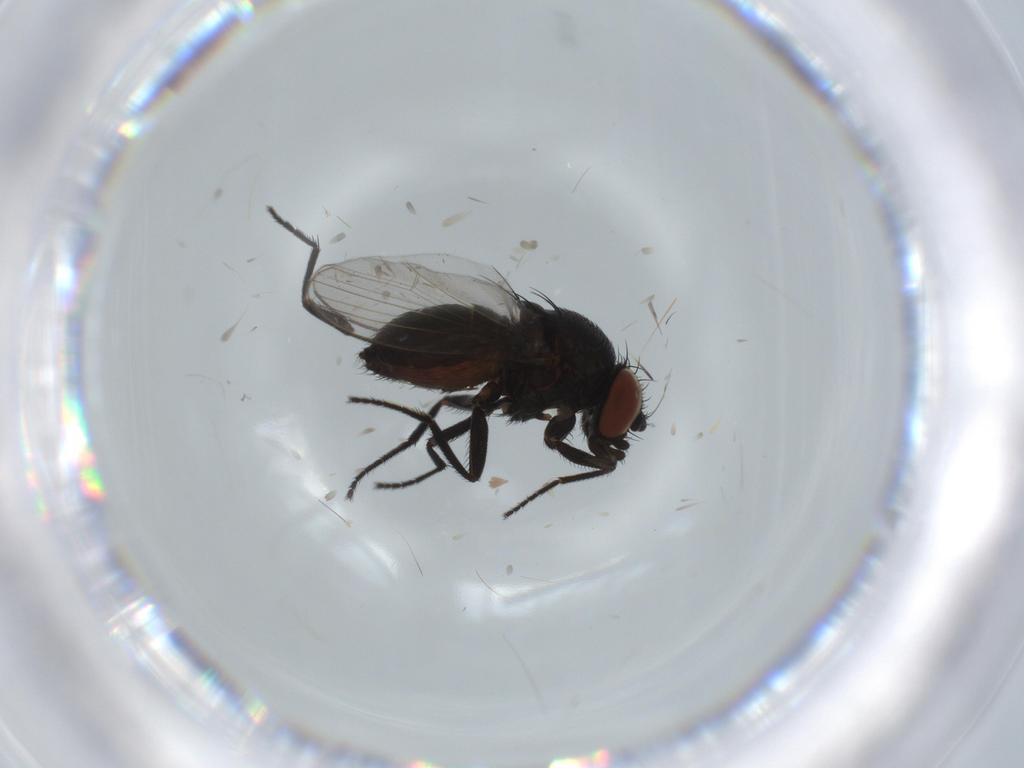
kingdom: Animalia
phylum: Arthropoda
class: Insecta
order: Diptera
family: Milichiidae
